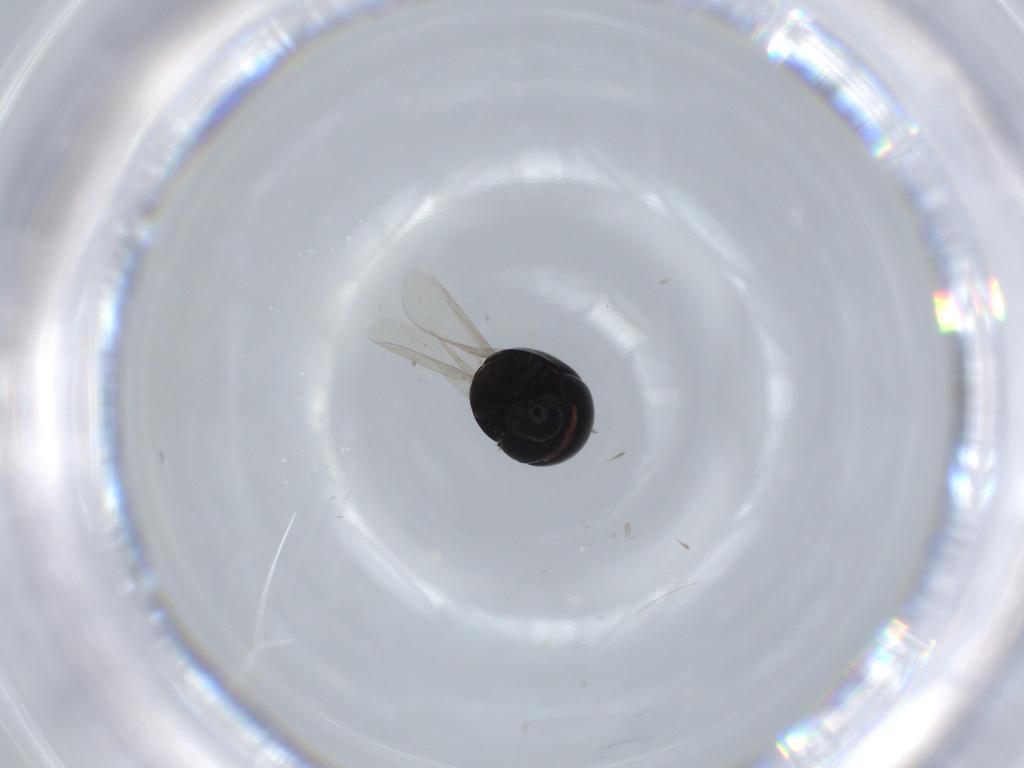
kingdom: Animalia
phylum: Arthropoda
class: Insecta
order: Coleoptera
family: Cybocephalidae
